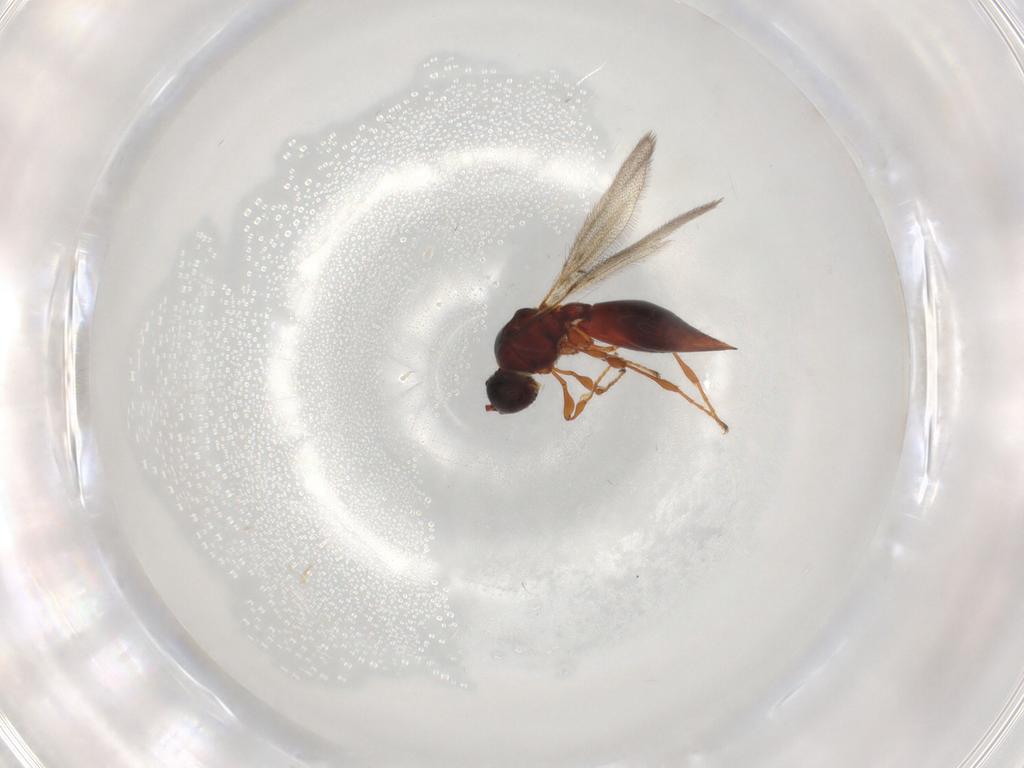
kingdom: Animalia
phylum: Arthropoda
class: Insecta
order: Hymenoptera
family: Diapriidae
